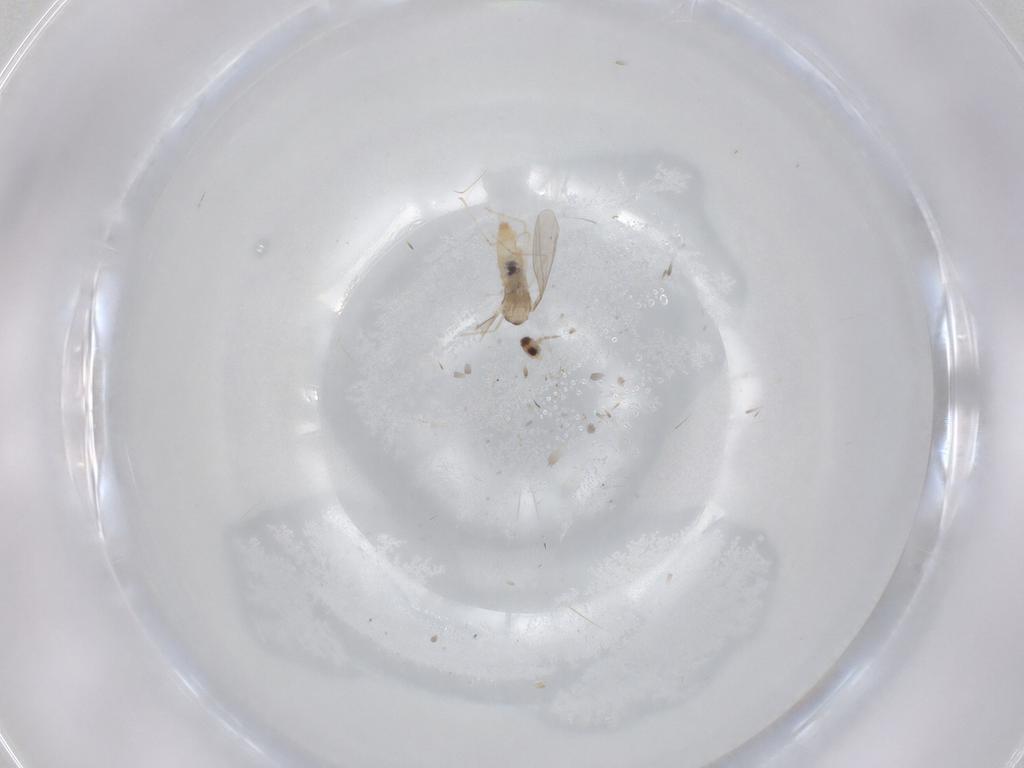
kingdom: Animalia
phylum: Arthropoda
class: Insecta
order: Diptera
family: Cecidomyiidae
